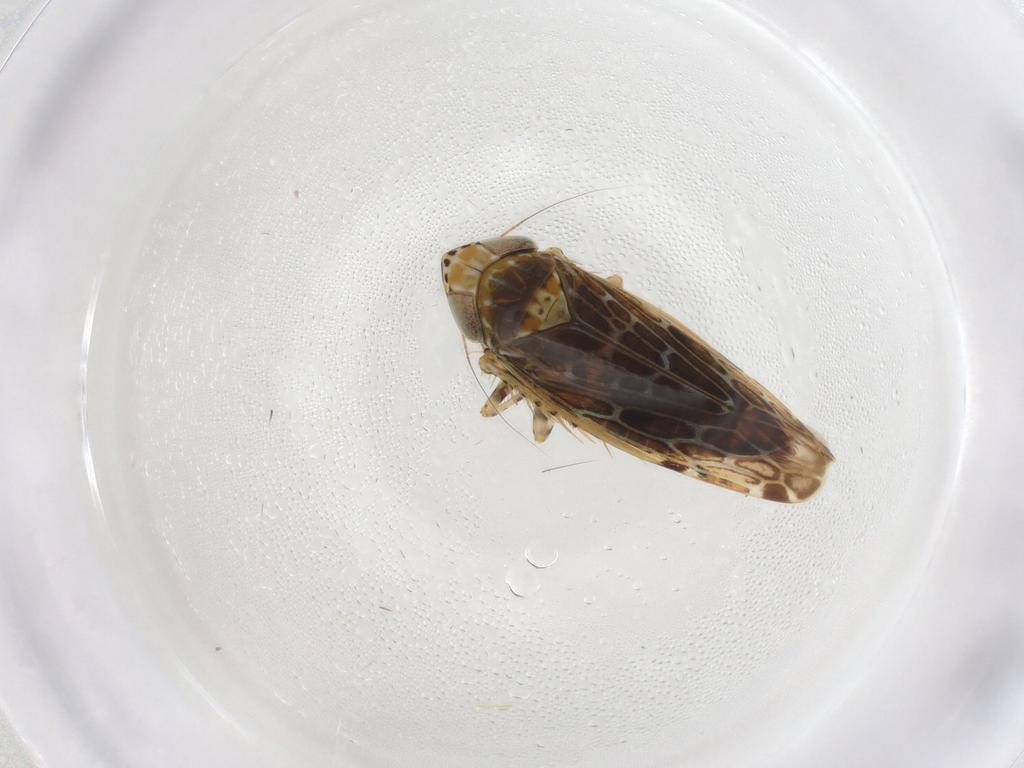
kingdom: Animalia
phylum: Arthropoda
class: Insecta
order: Hemiptera
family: Cicadellidae
